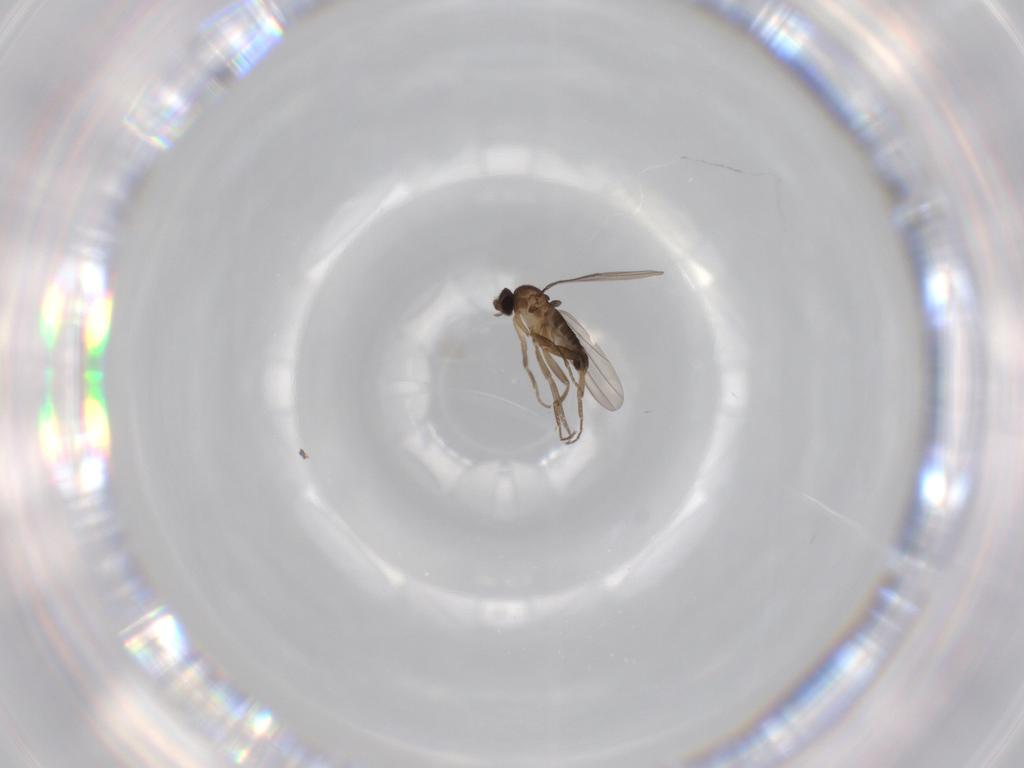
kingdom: Animalia
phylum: Arthropoda
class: Insecta
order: Diptera
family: Phoridae
